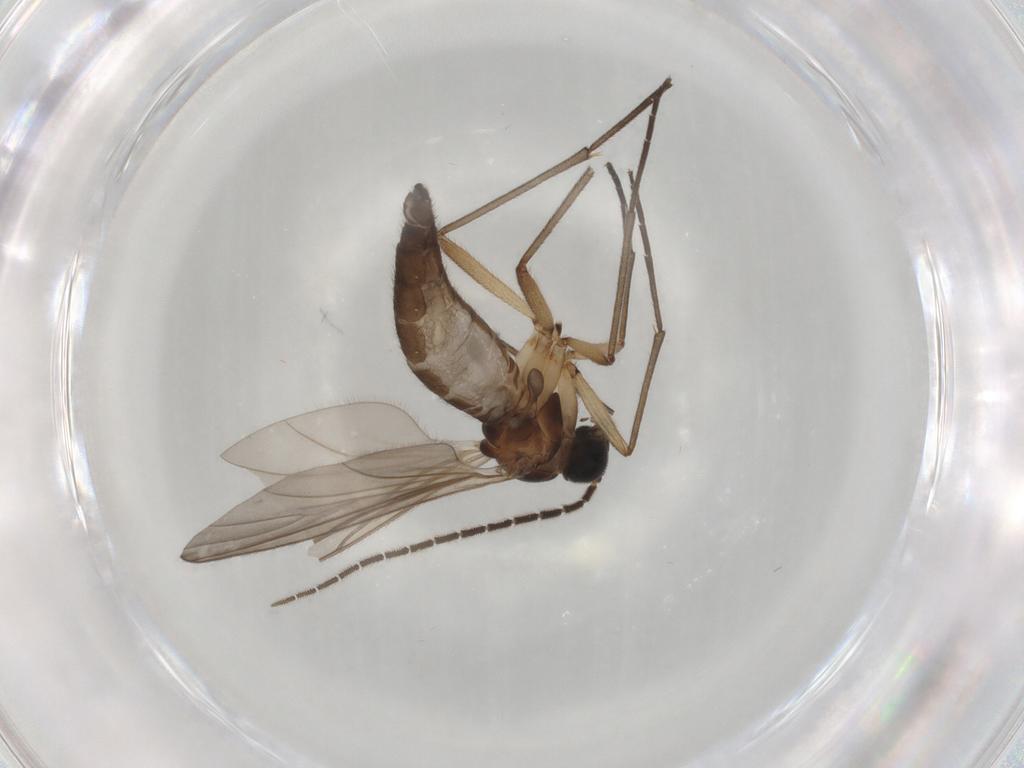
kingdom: Animalia
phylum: Arthropoda
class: Insecta
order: Diptera
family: Sciaridae
